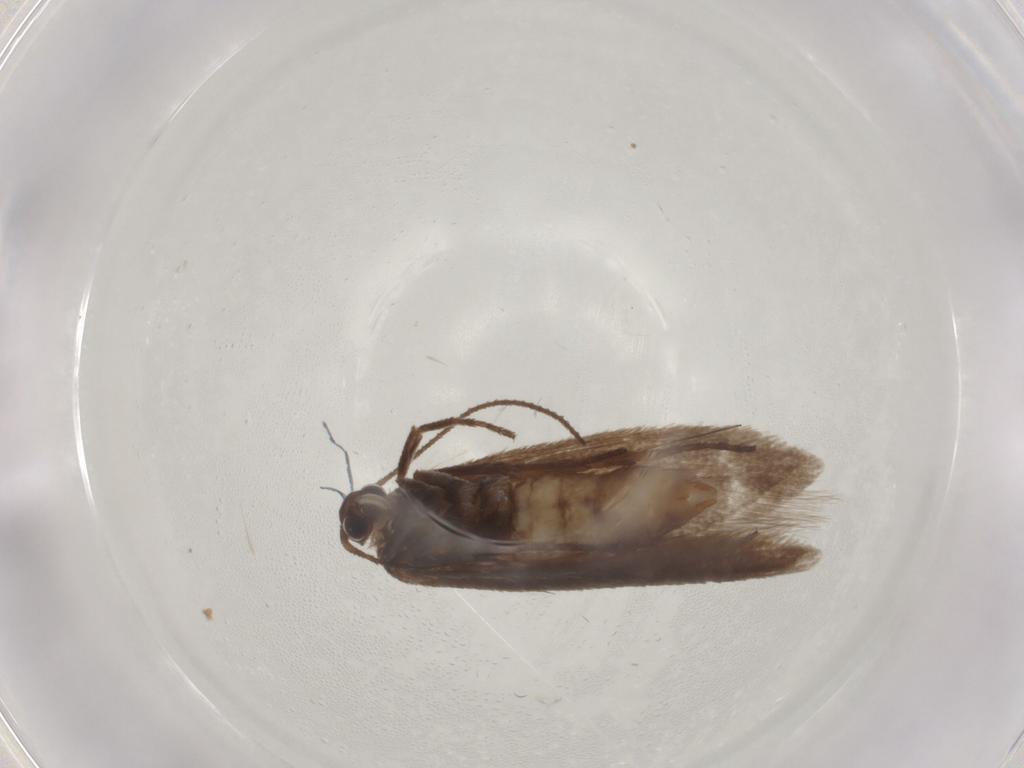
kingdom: Animalia
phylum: Arthropoda
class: Insecta
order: Lepidoptera
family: Limacodidae
